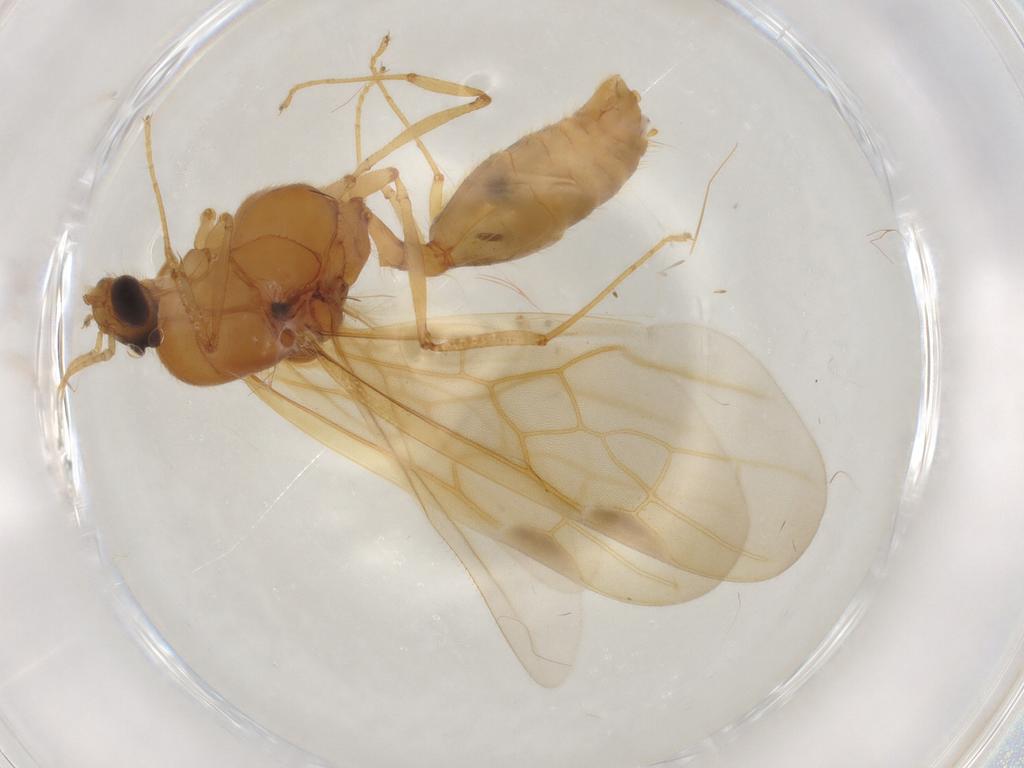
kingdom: Animalia
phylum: Arthropoda
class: Insecta
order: Hymenoptera
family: Formicidae
